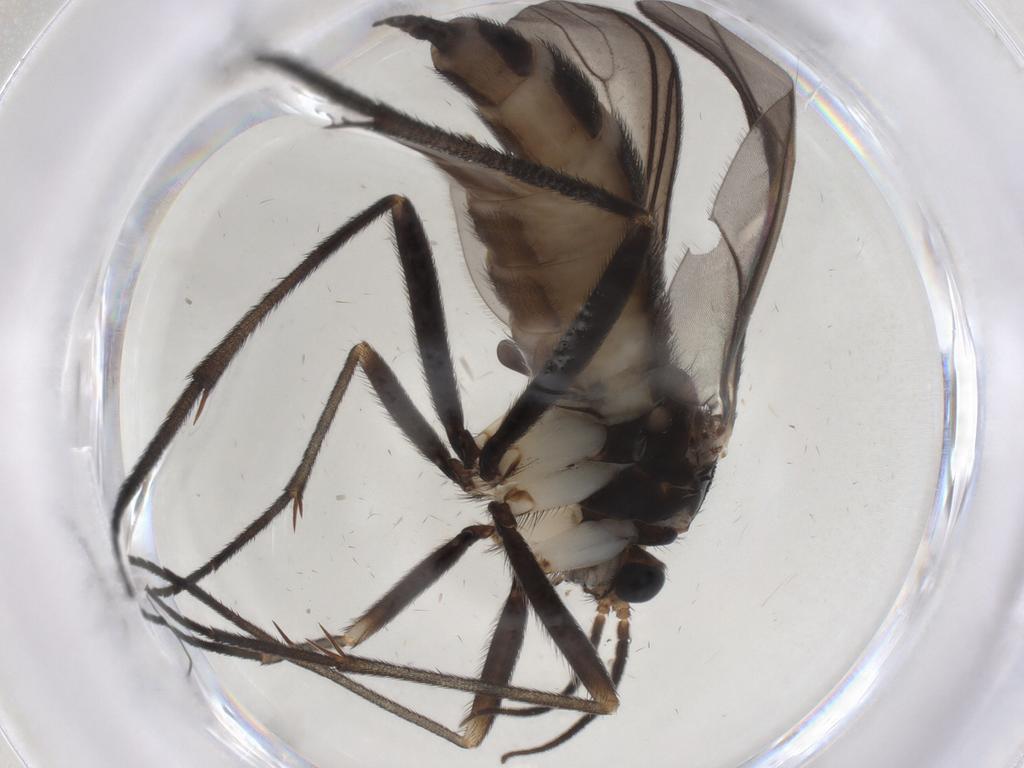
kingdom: Animalia
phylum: Arthropoda
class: Insecta
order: Diptera
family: Sciaridae
